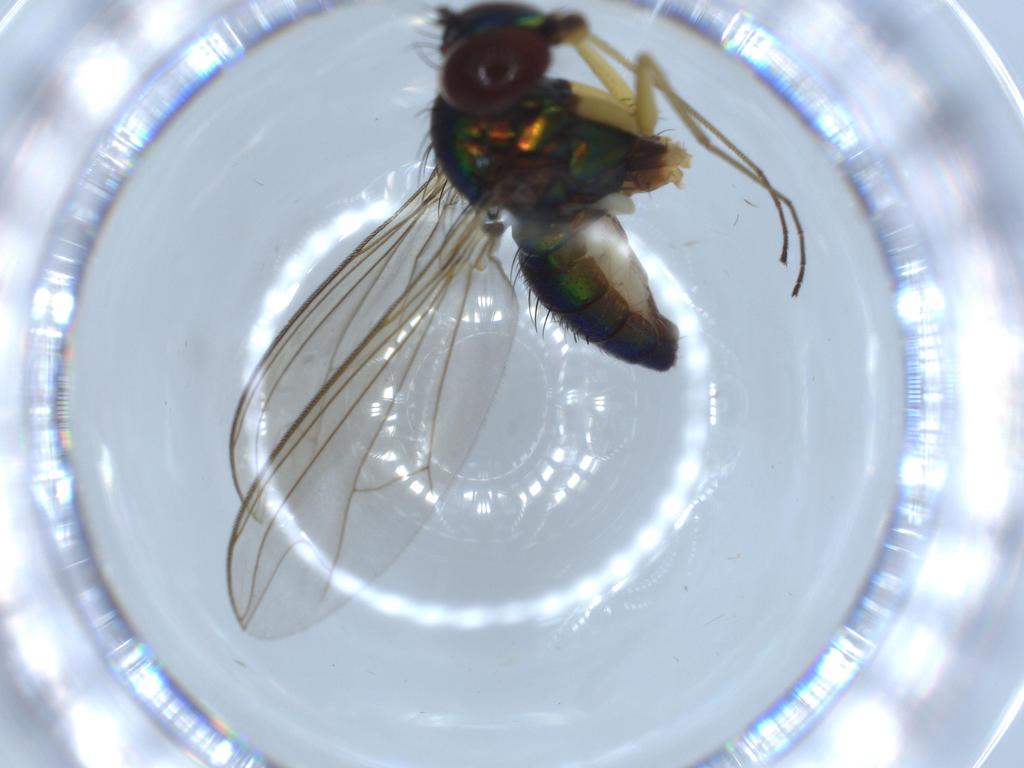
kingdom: Animalia
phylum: Arthropoda
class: Insecta
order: Diptera
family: Dolichopodidae
